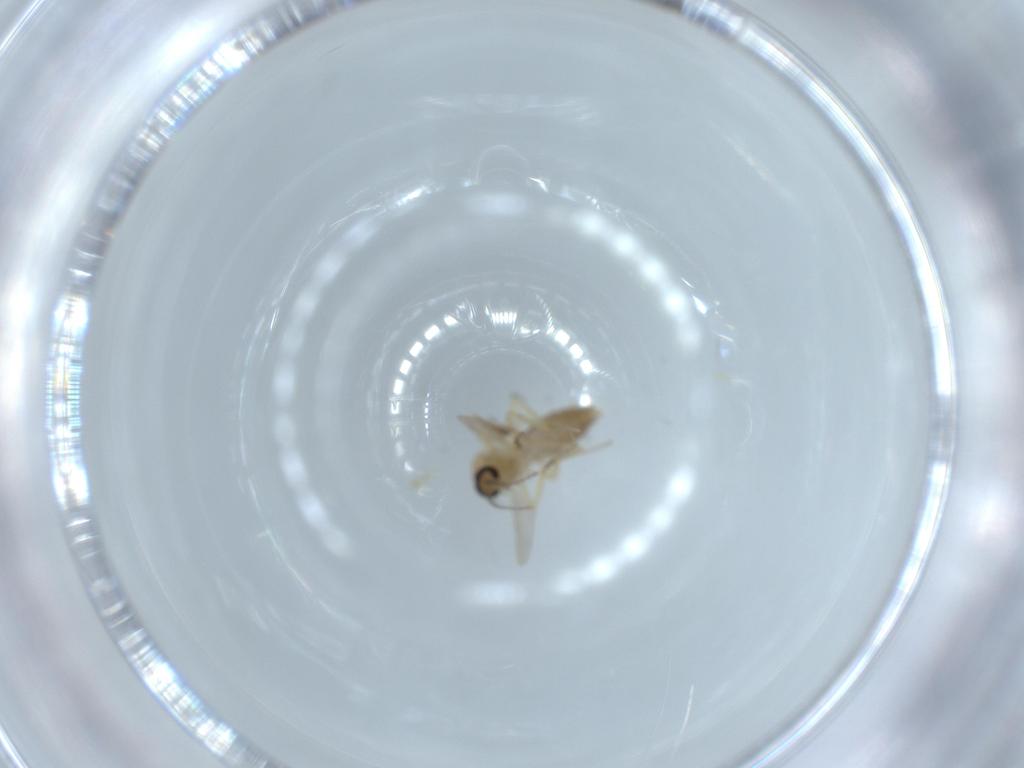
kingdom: Animalia
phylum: Arthropoda
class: Insecta
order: Diptera
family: Ceratopogonidae
